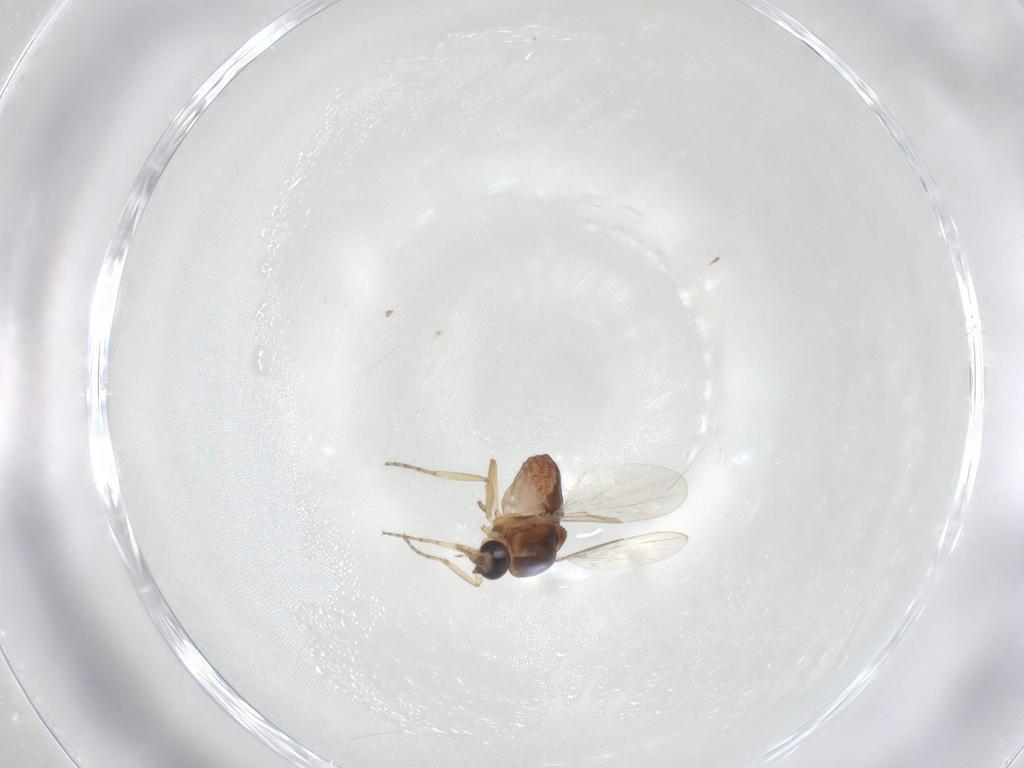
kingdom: Animalia
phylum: Arthropoda
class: Insecta
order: Diptera
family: Ceratopogonidae
